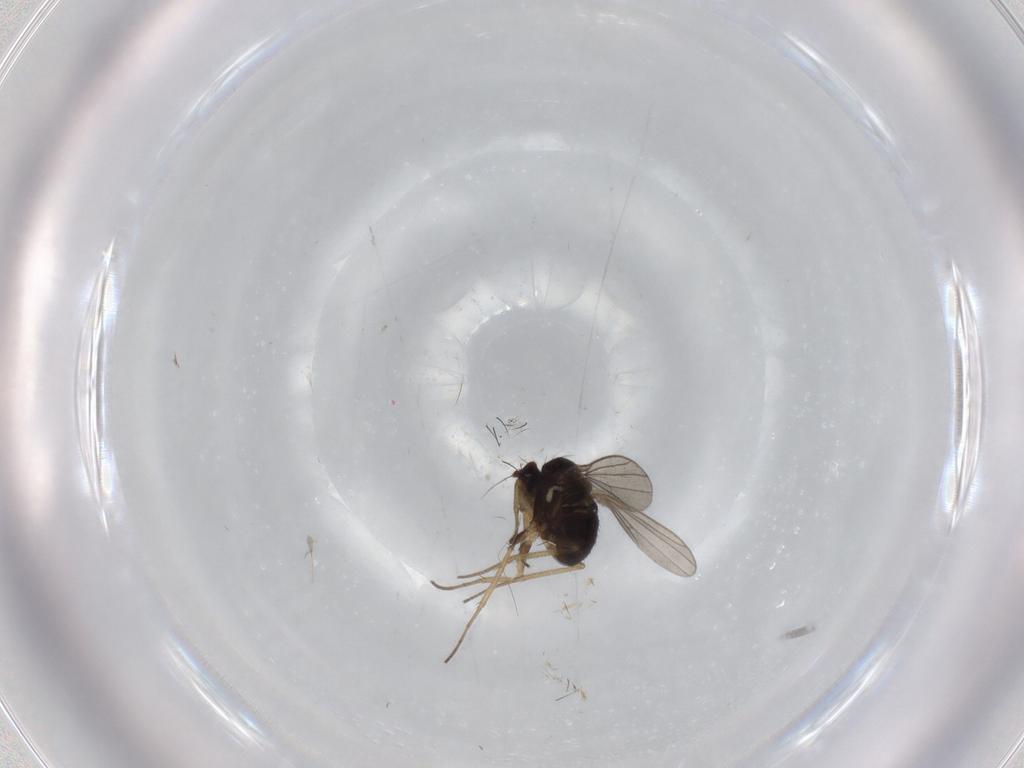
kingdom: Animalia
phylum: Arthropoda
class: Insecta
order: Diptera
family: Dolichopodidae
